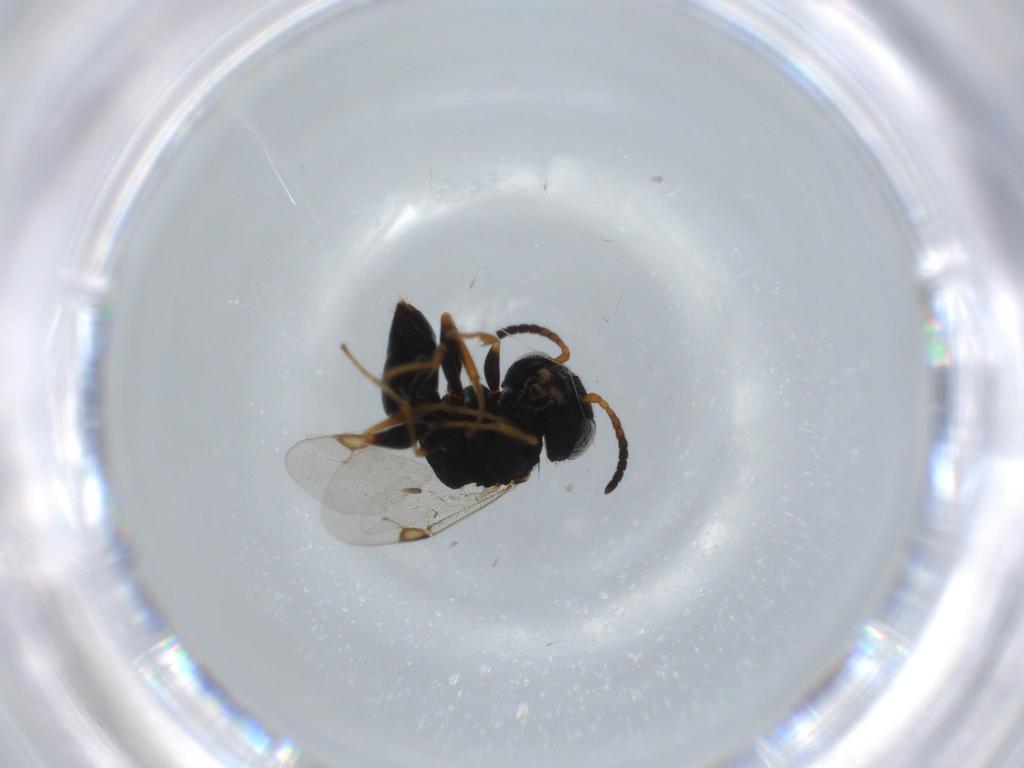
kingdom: Animalia
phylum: Arthropoda
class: Insecta
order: Hymenoptera
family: Dryinidae
